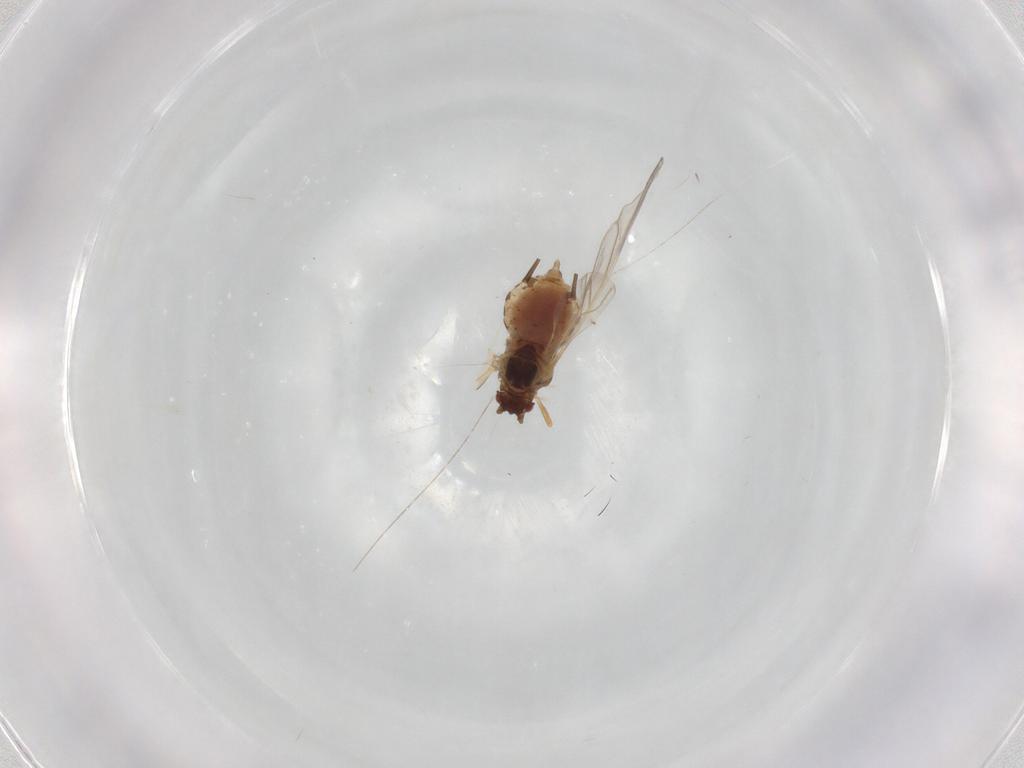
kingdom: Animalia
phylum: Arthropoda
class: Insecta
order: Hemiptera
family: Aphididae
